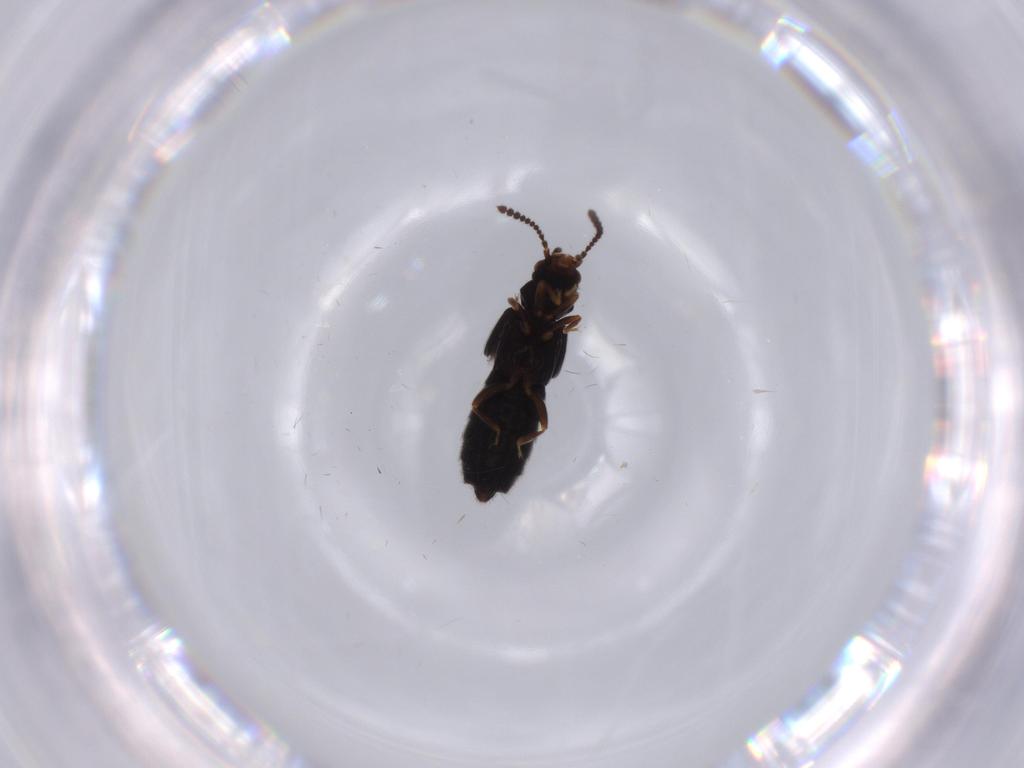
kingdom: Animalia
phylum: Arthropoda
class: Insecta
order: Coleoptera
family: Staphylinidae
